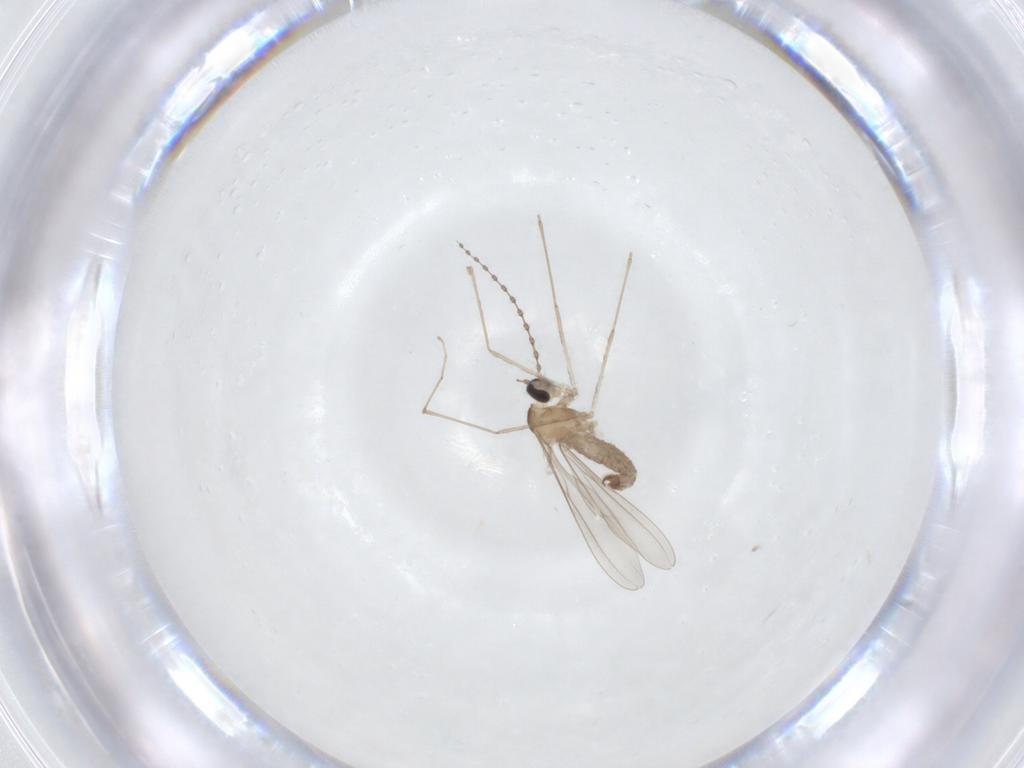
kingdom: Animalia
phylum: Arthropoda
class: Insecta
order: Diptera
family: Cecidomyiidae
